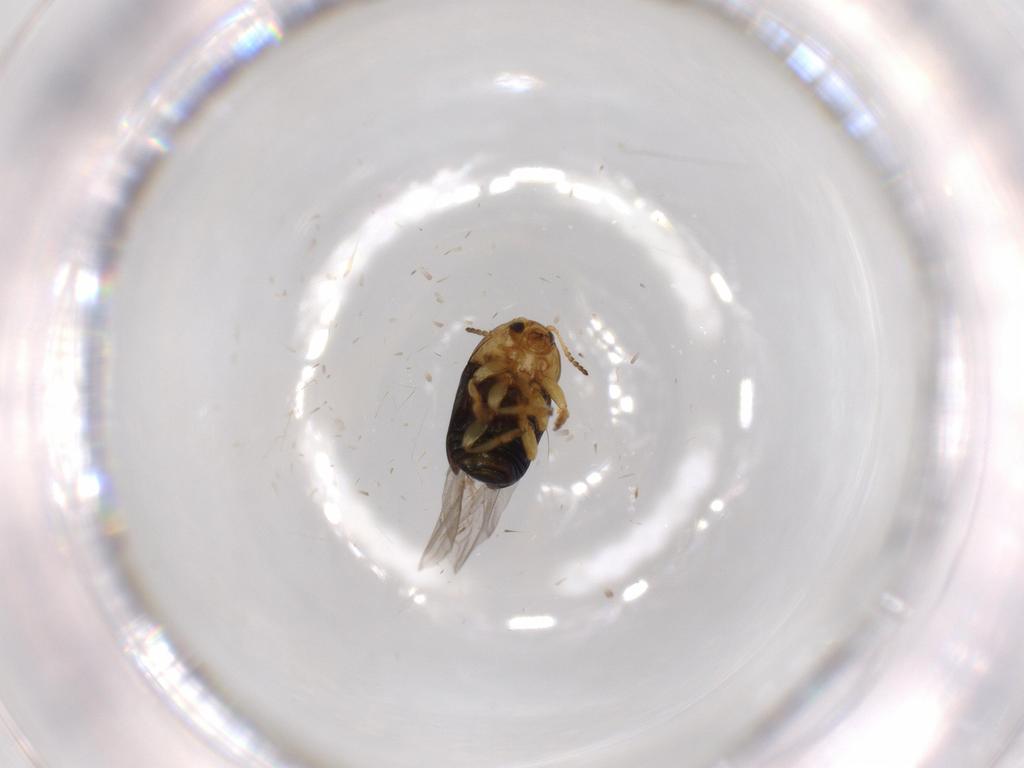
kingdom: Animalia
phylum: Arthropoda
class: Insecta
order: Coleoptera
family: Chrysomelidae
